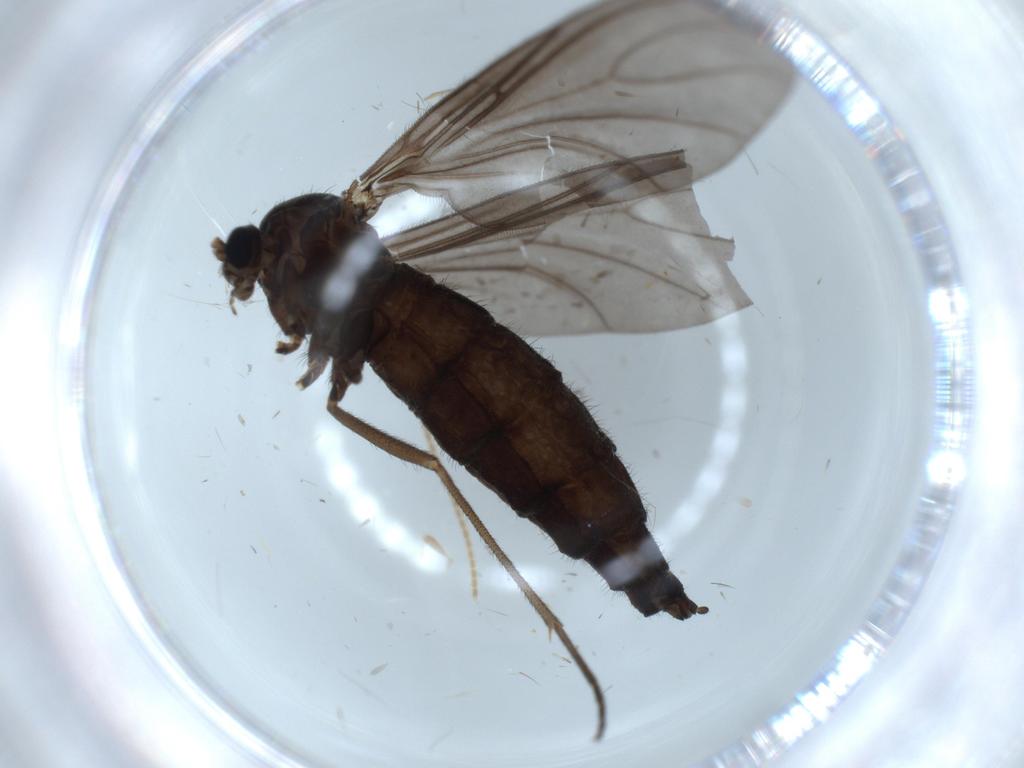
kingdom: Animalia
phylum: Arthropoda
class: Insecta
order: Diptera
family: Sciaridae
